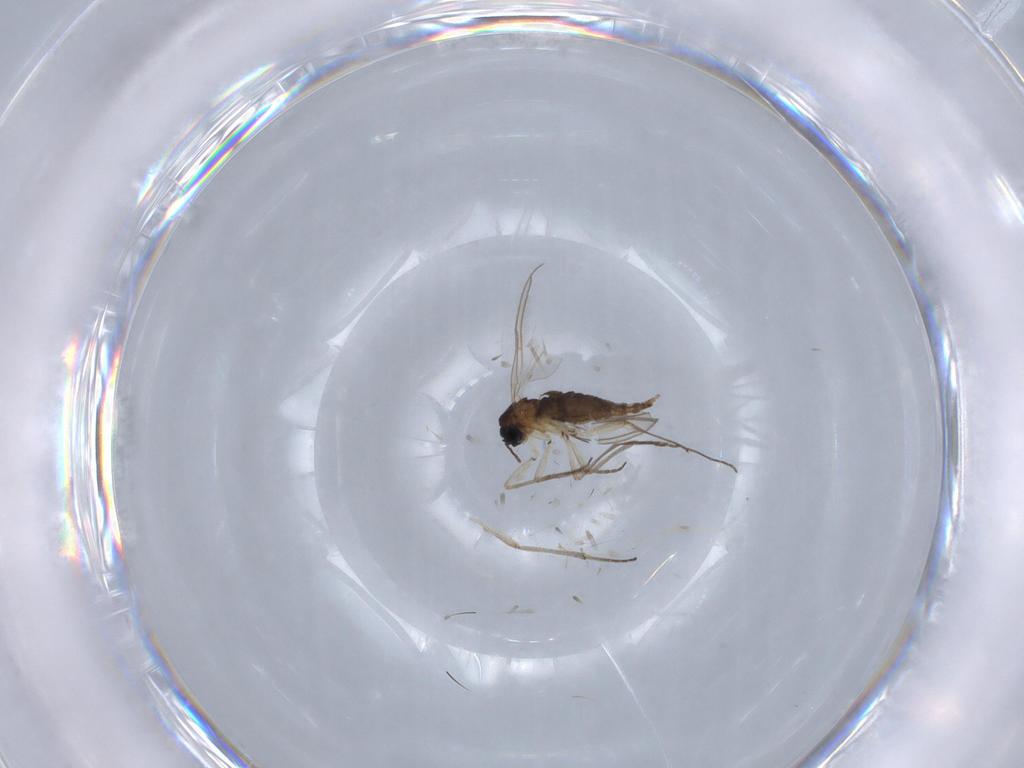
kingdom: Animalia
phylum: Arthropoda
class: Insecta
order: Diptera
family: Sciaridae
